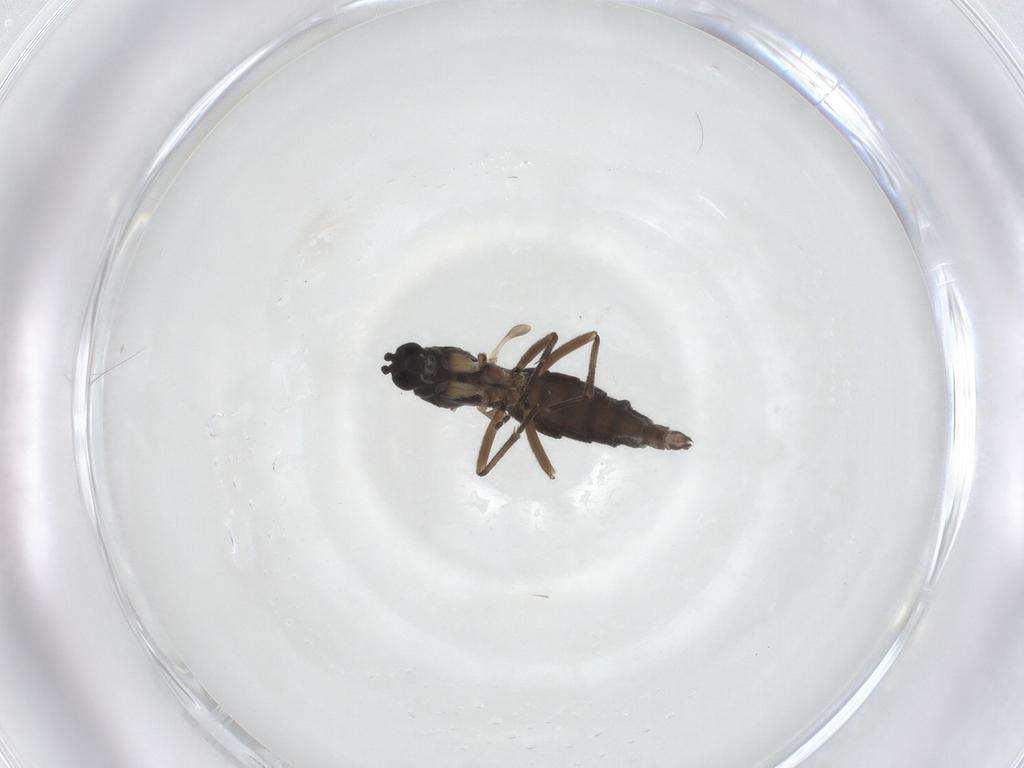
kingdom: Animalia
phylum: Arthropoda
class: Insecta
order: Diptera
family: Sciaridae
